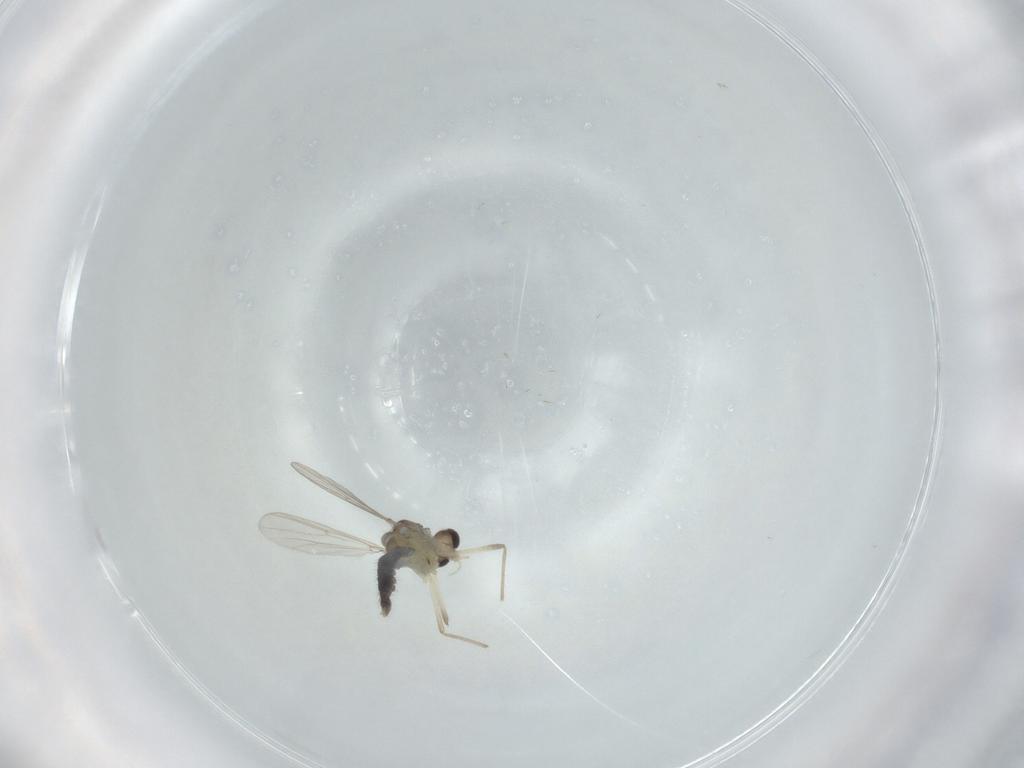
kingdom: Animalia
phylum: Arthropoda
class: Insecta
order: Diptera
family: Chironomidae
